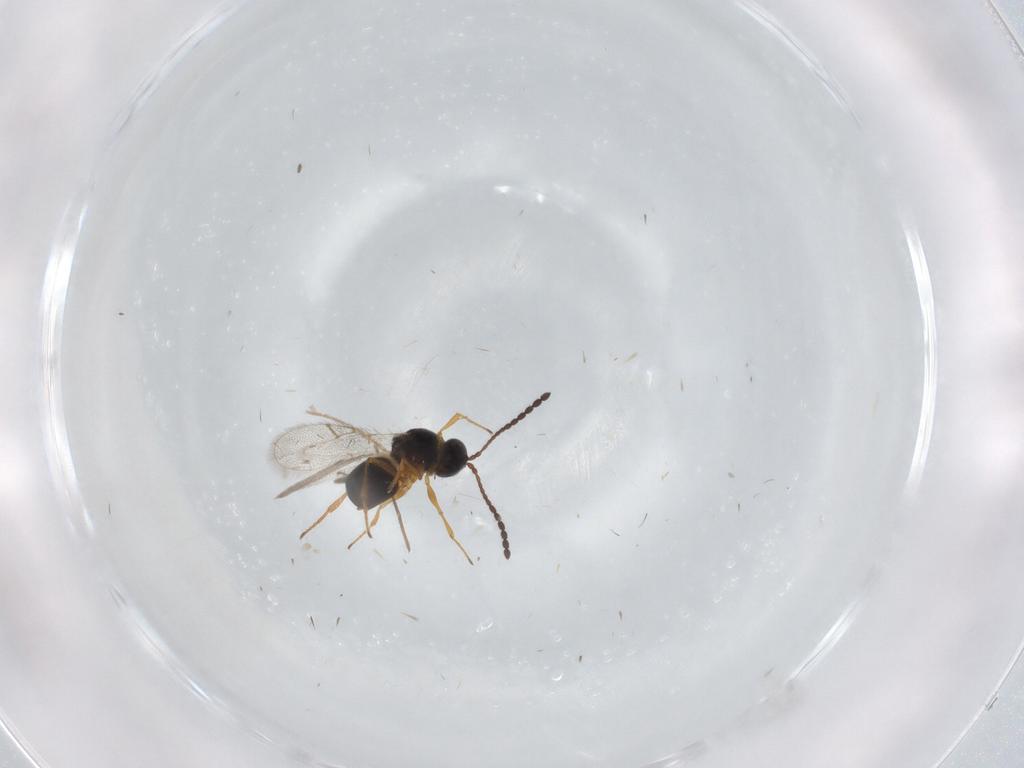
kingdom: Animalia
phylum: Arthropoda
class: Insecta
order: Hymenoptera
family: Figitidae
